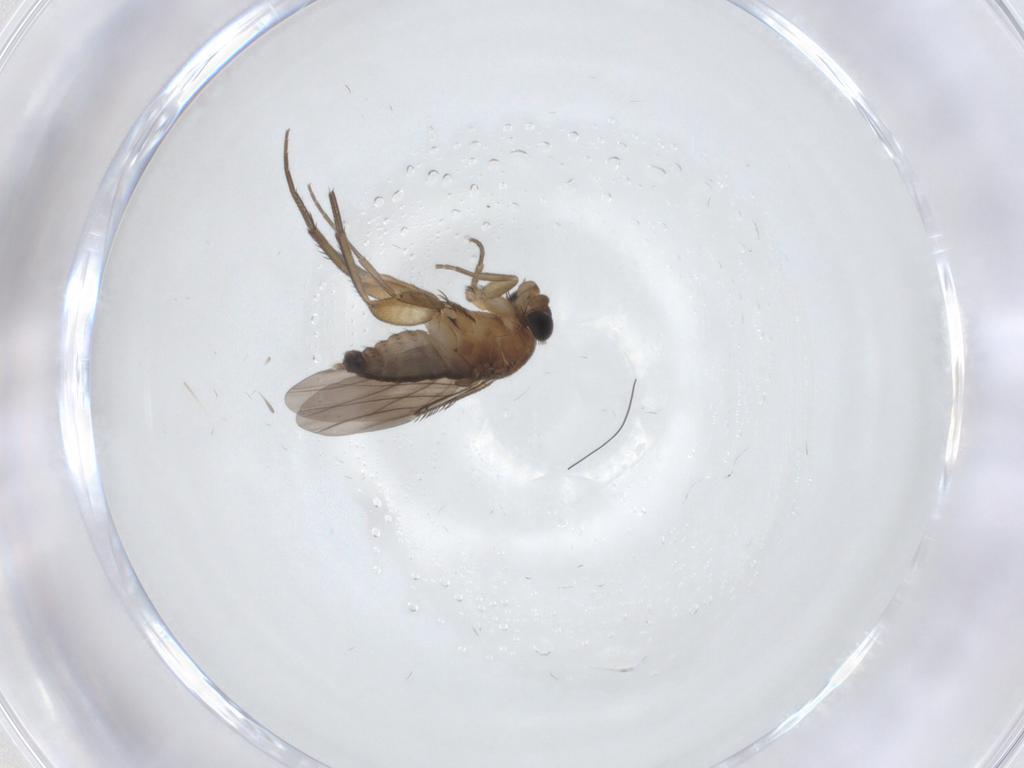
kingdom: Animalia
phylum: Arthropoda
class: Insecta
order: Diptera
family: Phoridae
